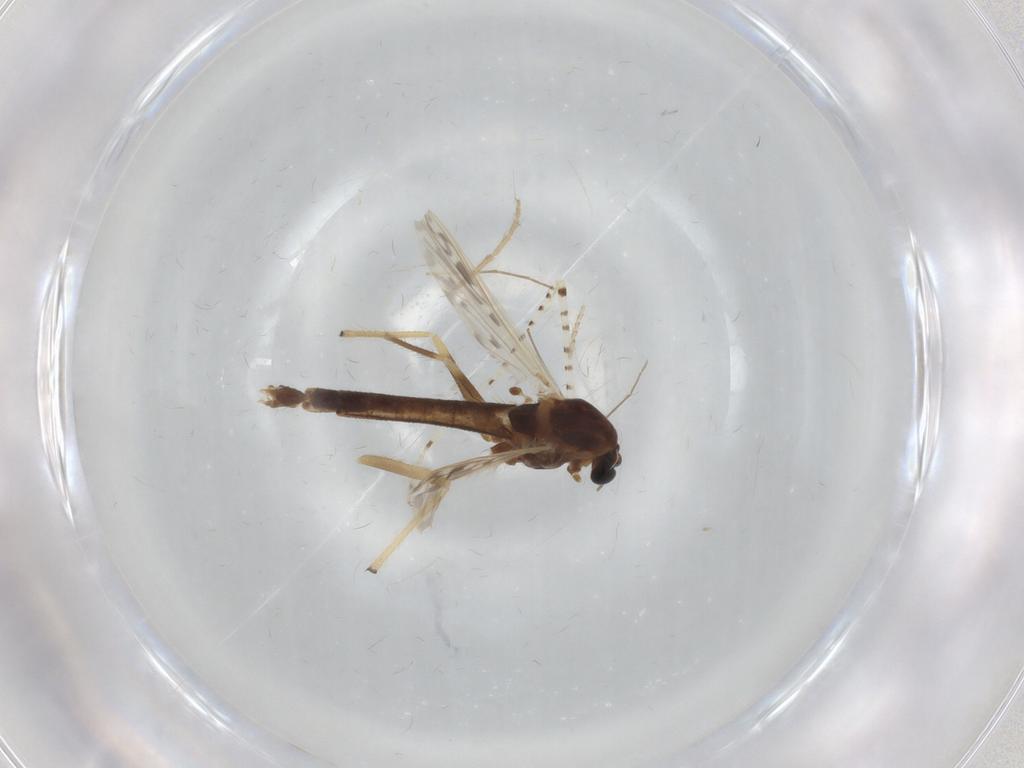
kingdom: Animalia
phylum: Arthropoda
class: Insecta
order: Diptera
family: Chironomidae
